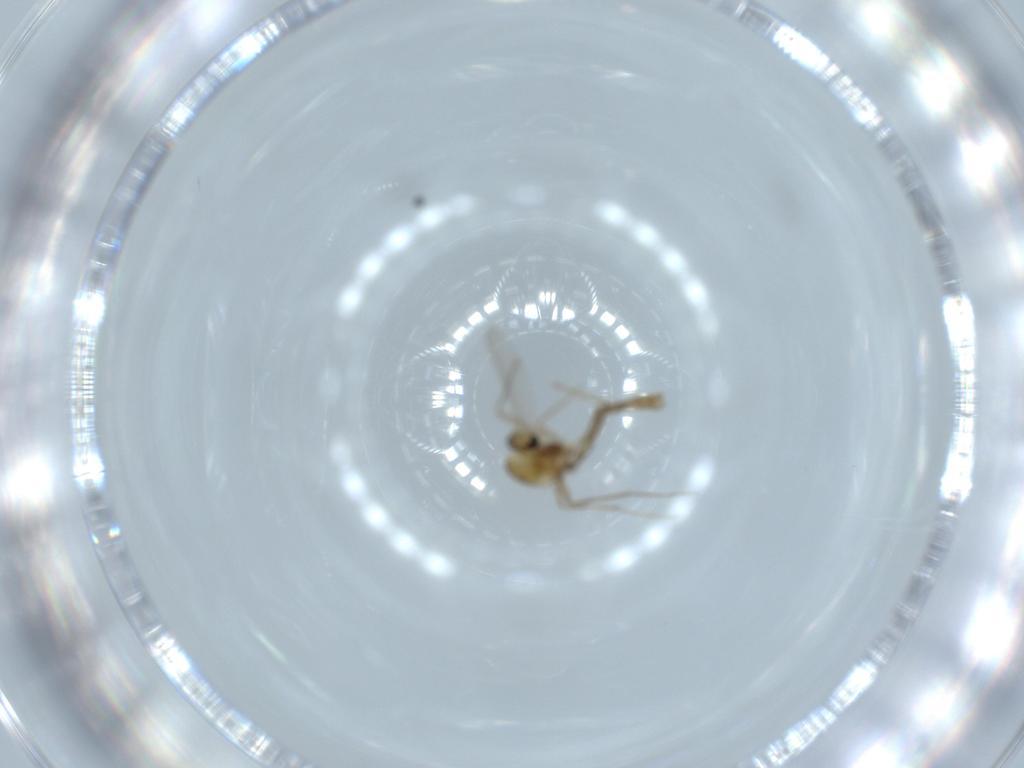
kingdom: Animalia
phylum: Arthropoda
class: Insecta
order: Diptera
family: Chironomidae
